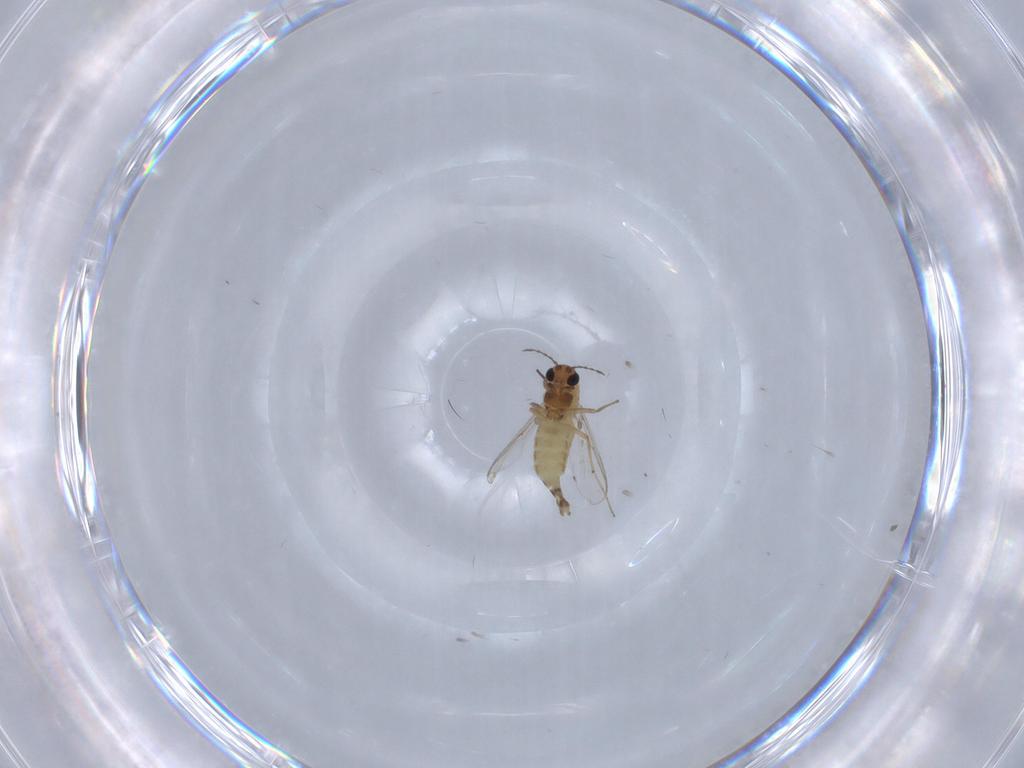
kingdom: Animalia
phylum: Arthropoda
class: Insecta
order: Diptera
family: Chironomidae
